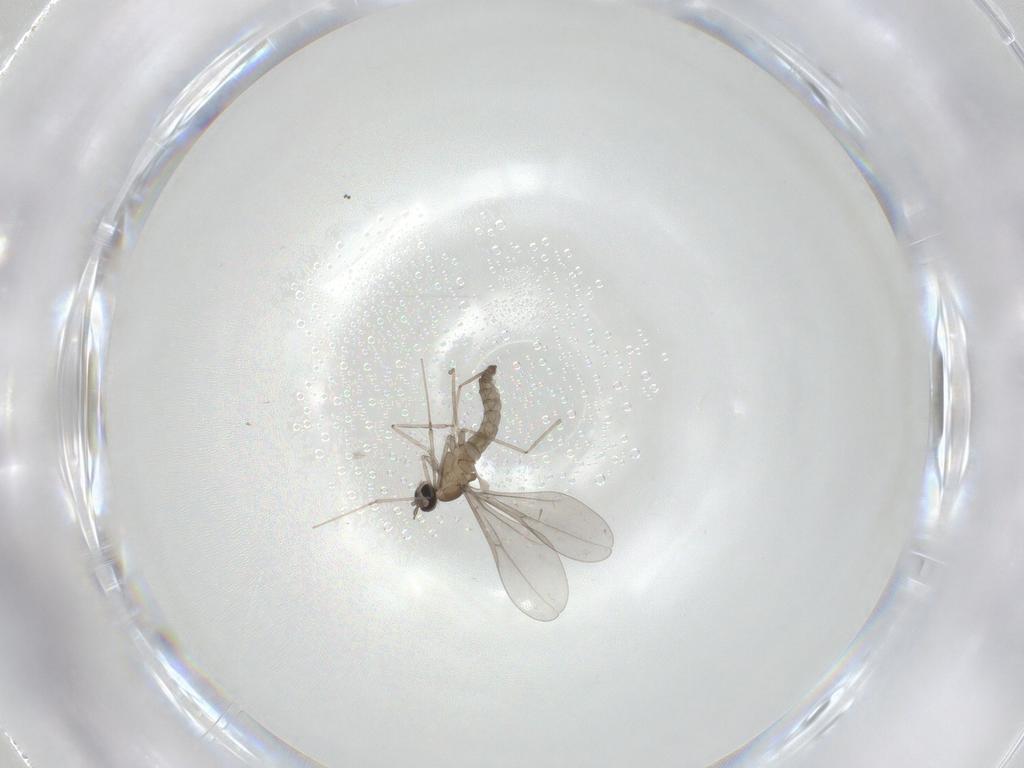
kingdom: Animalia
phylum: Arthropoda
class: Insecta
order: Diptera
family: Cecidomyiidae
